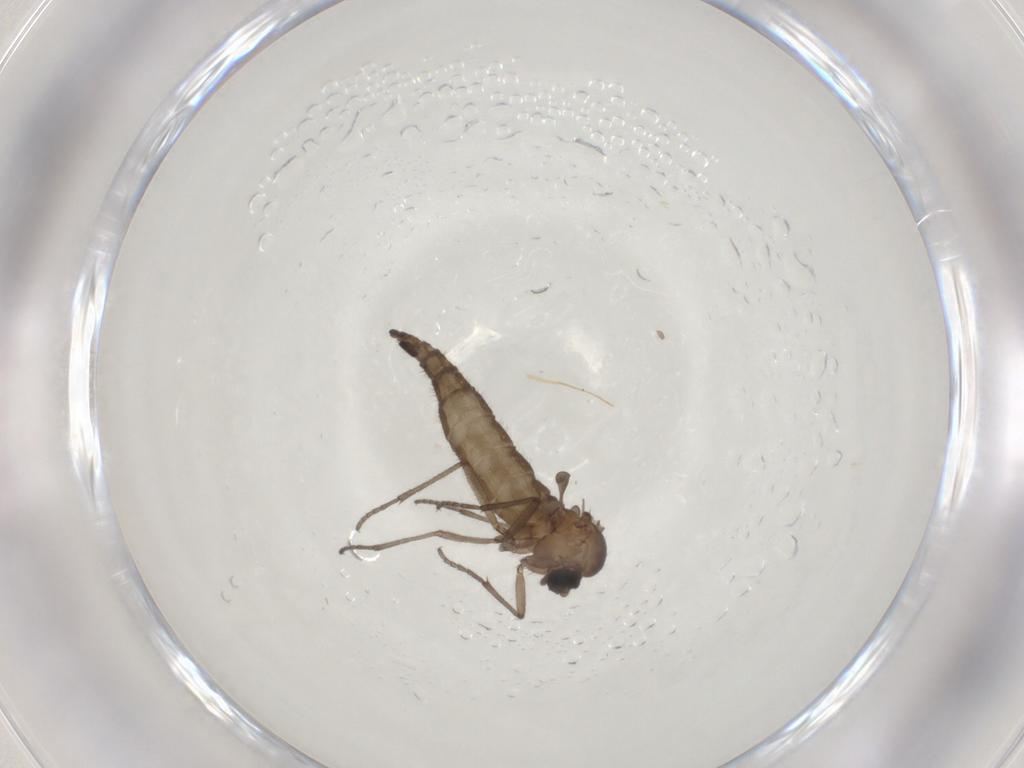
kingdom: Animalia
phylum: Arthropoda
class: Insecta
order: Diptera
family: Sciaridae
